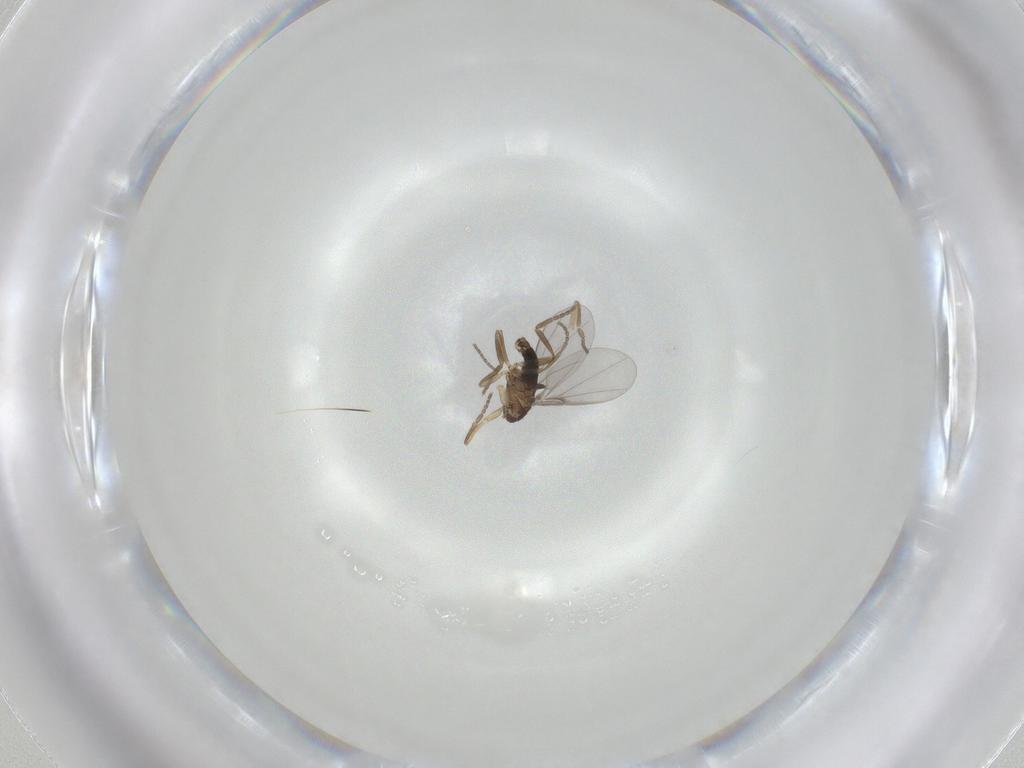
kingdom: Animalia
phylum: Arthropoda
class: Insecta
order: Diptera
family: Phoridae
